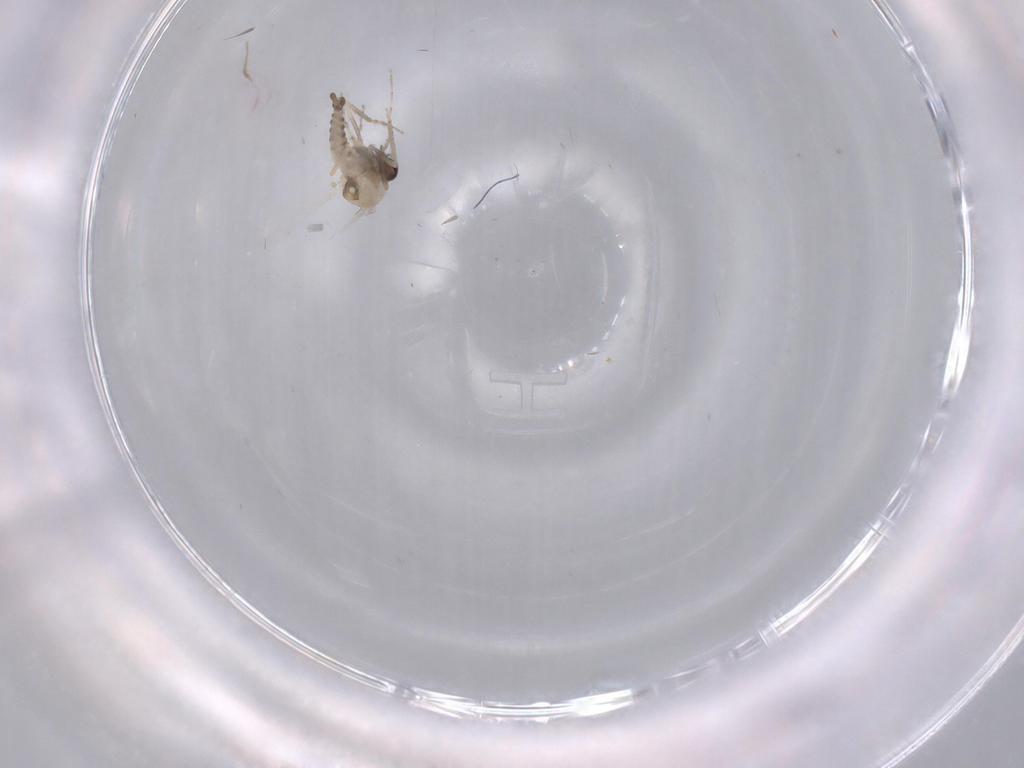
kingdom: Animalia
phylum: Arthropoda
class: Insecta
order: Diptera
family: Ceratopogonidae
